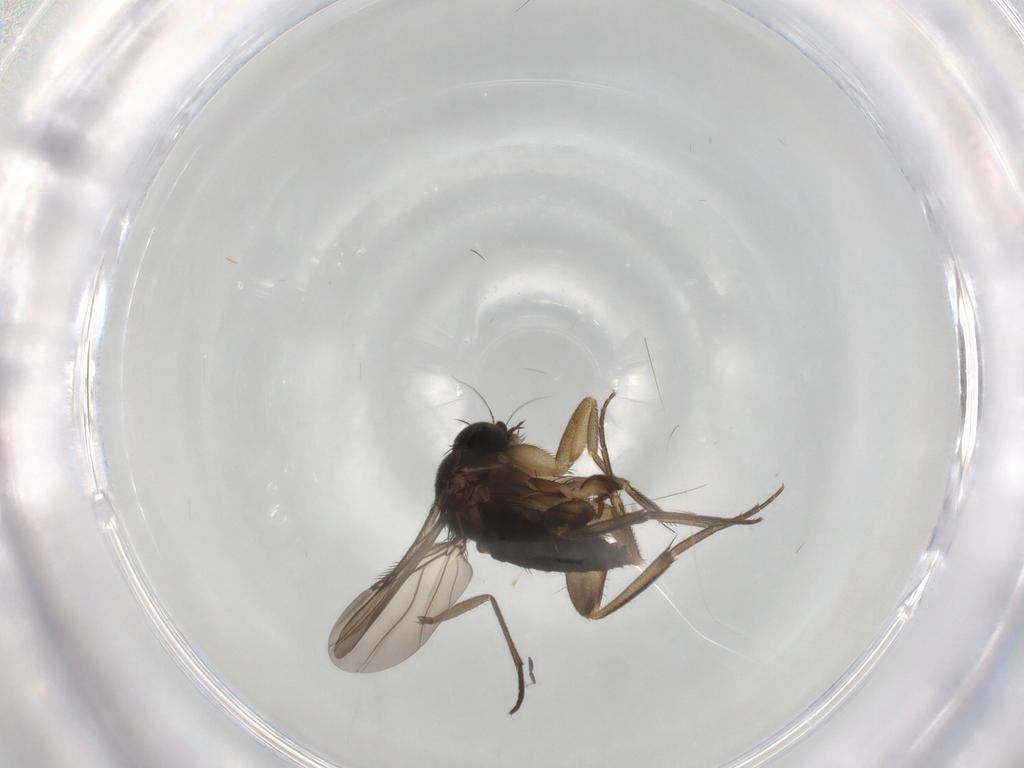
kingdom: Animalia
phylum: Arthropoda
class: Insecta
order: Diptera
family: Phoridae
